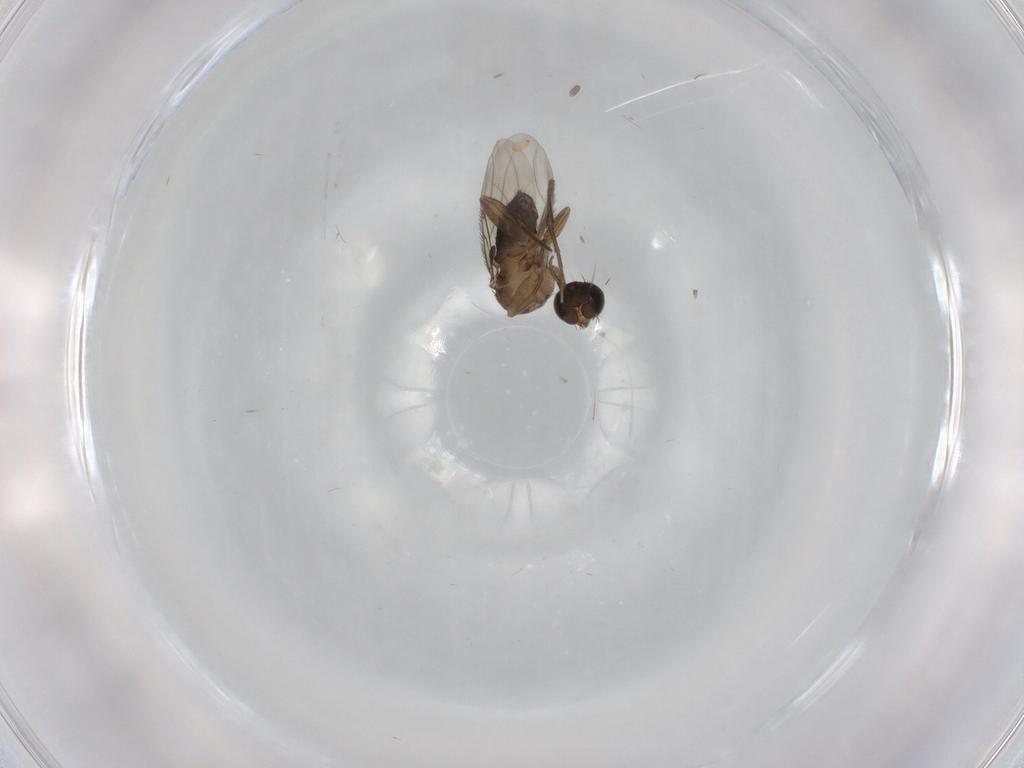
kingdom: Animalia
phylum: Arthropoda
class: Insecta
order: Diptera
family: Phoridae
